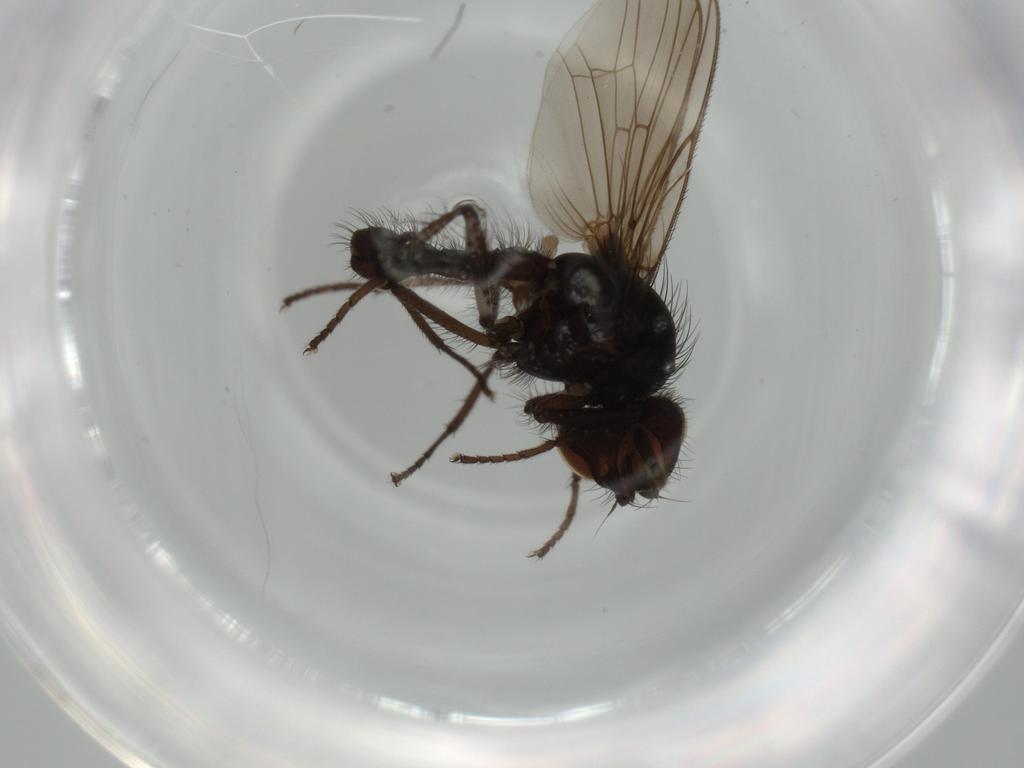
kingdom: Animalia
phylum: Arthropoda
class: Insecta
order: Diptera
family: Anthomyiidae
